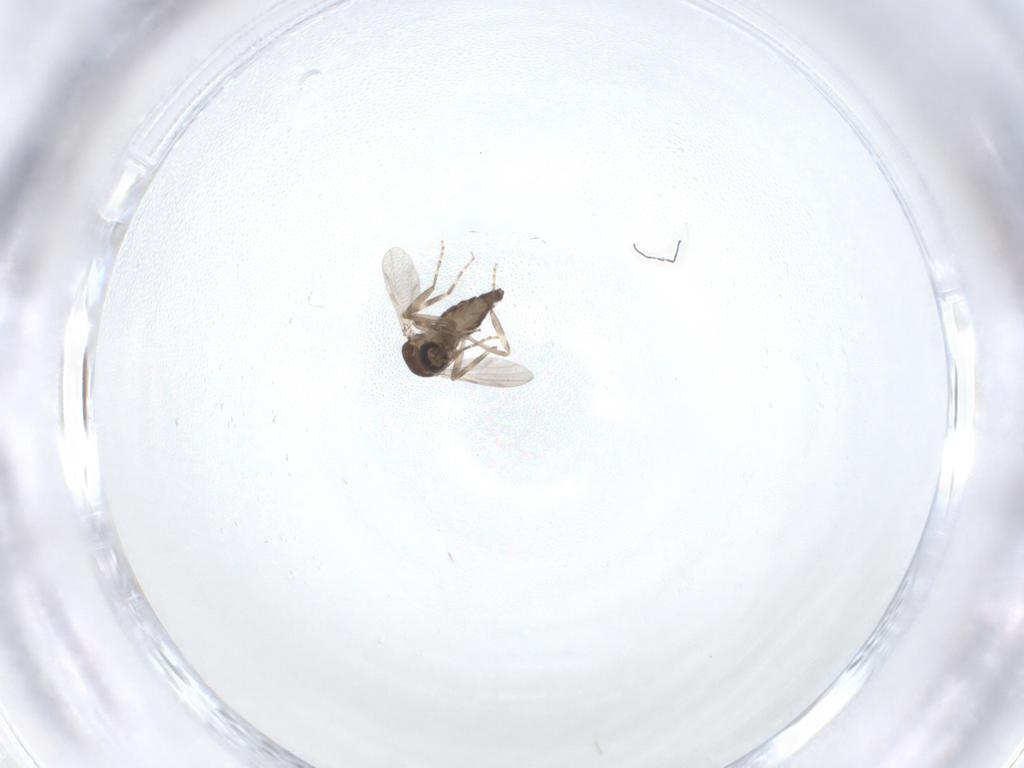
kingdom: Animalia
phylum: Arthropoda
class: Insecta
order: Diptera
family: Ceratopogonidae
